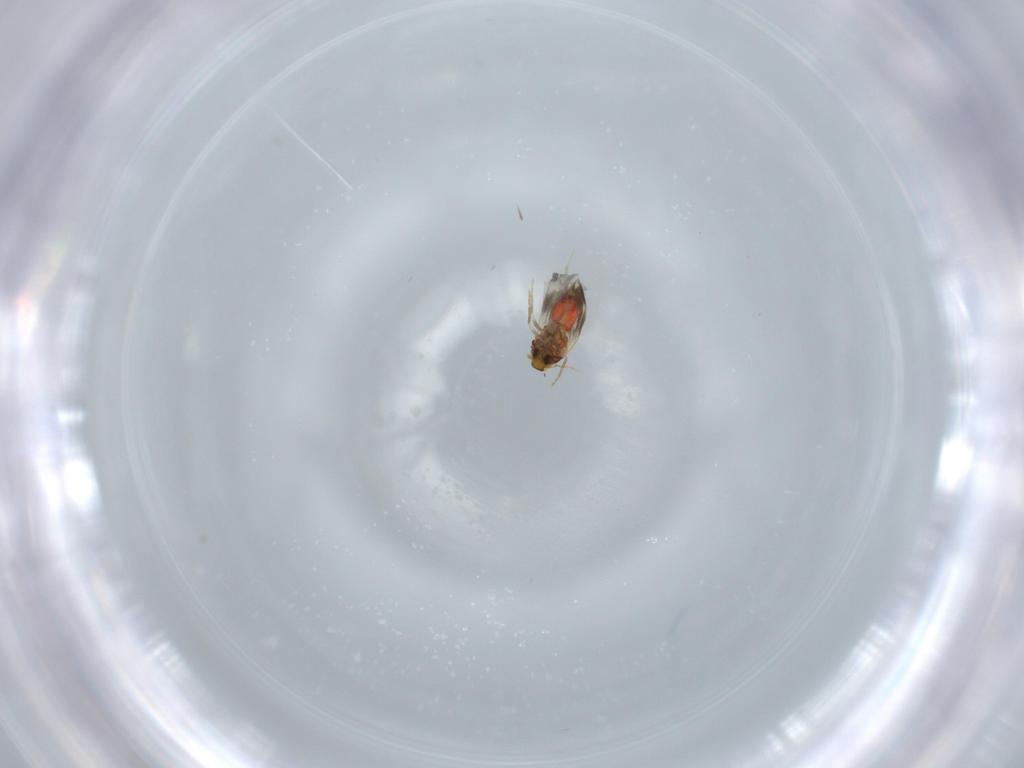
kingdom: Animalia
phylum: Arthropoda
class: Insecta
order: Hemiptera
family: Aleyrodidae
